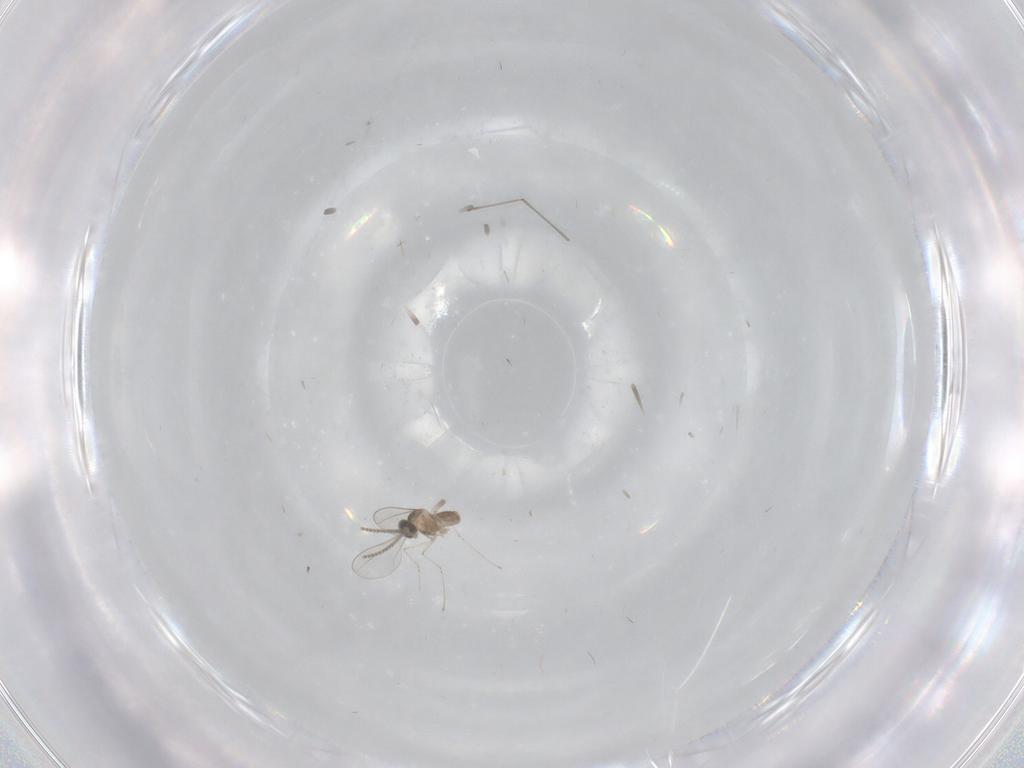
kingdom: Animalia
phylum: Arthropoda
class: Insecta
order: Diptera
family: Cecidomyiidae
